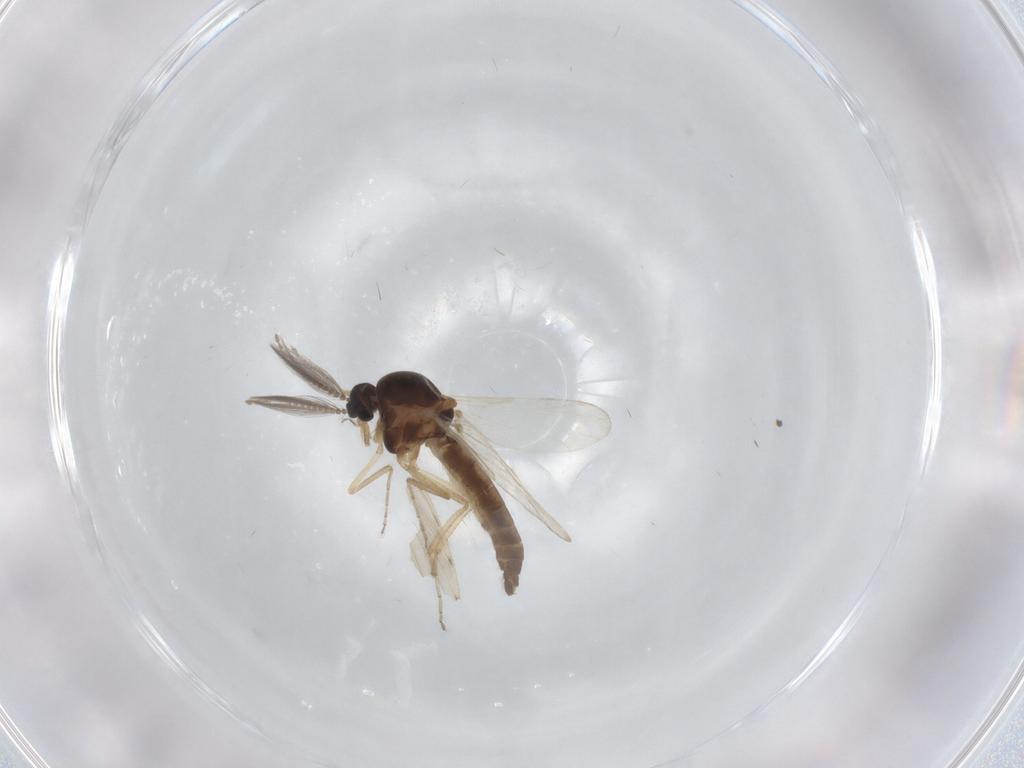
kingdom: Animalia
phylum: Arthropoda
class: Insecta
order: Diptera
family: Ceratopogonidae
